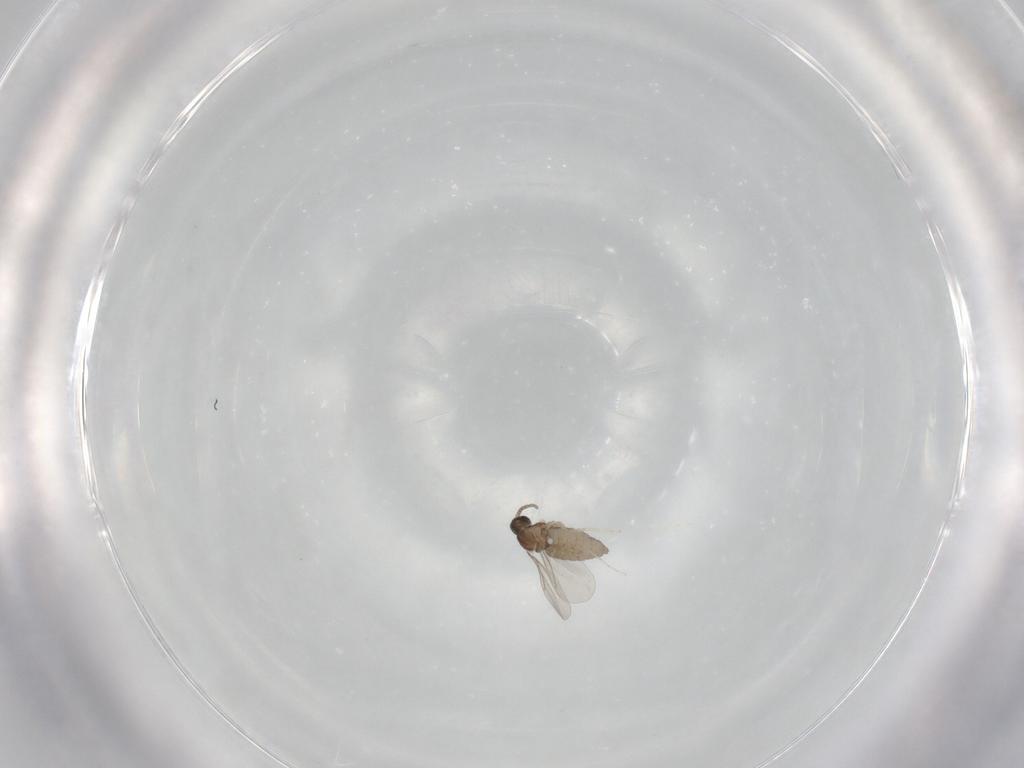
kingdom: Animalia
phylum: Arthropoda
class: Insecta
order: Diptera
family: Cecidomyiidae
